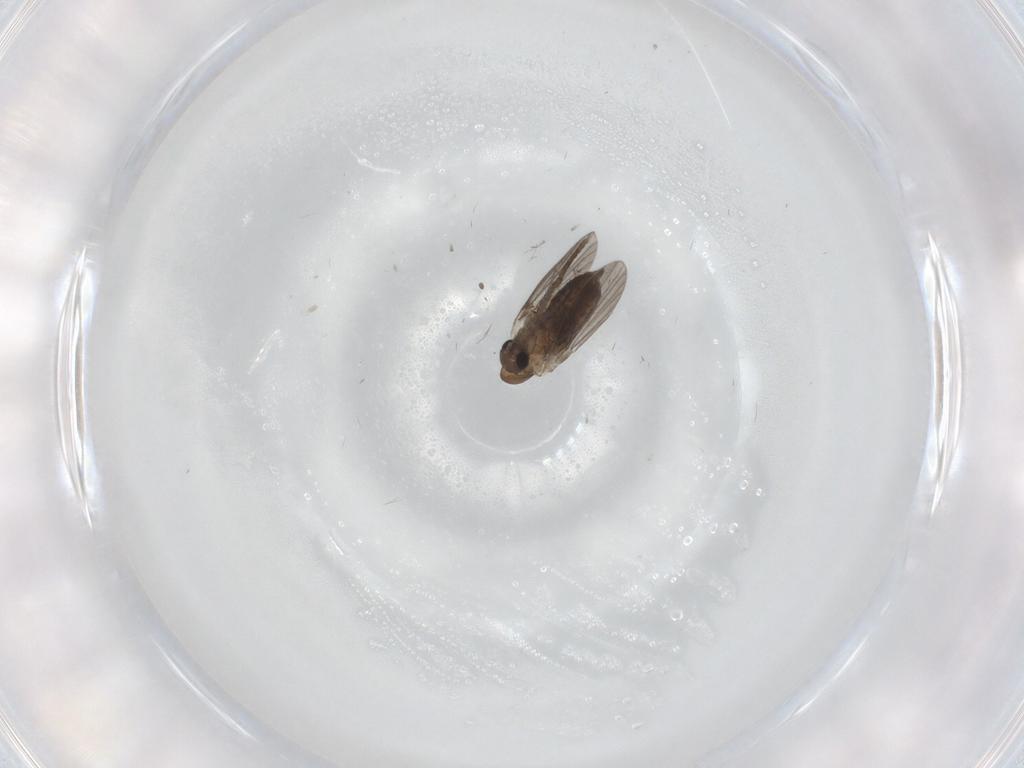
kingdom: Animalia
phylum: Arthropoda
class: Insecta
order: Diptera
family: Sciaridae
